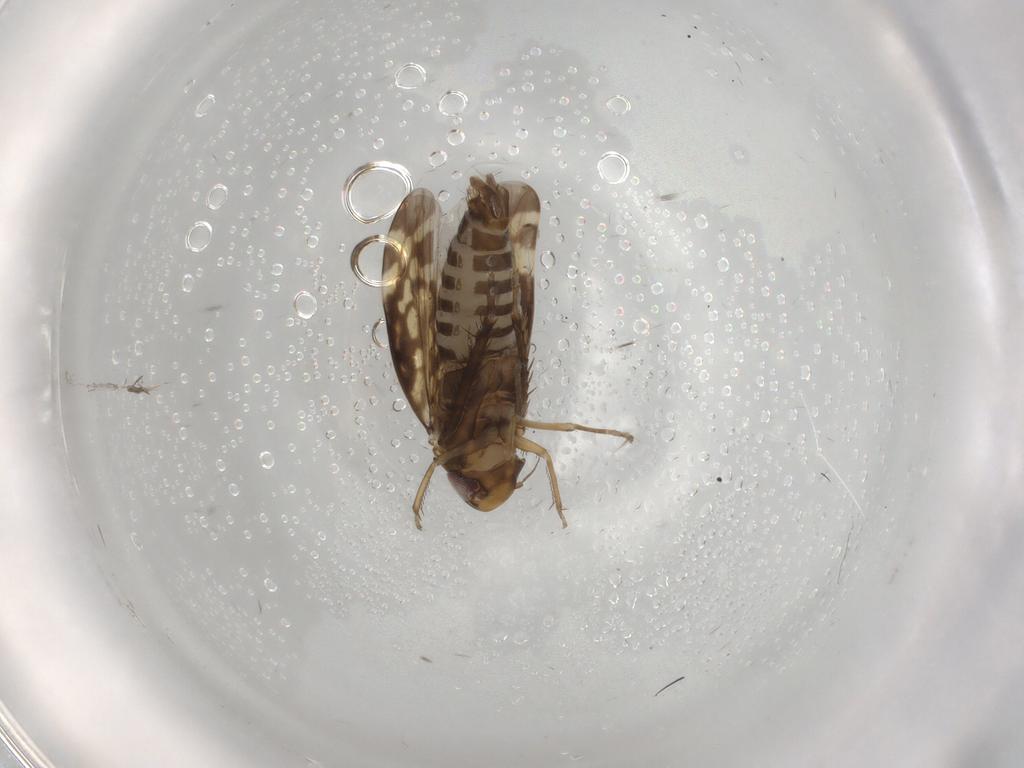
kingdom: Animalia
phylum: Arthropoda
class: Insecta
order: Hemiptera
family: Cicadellidae
